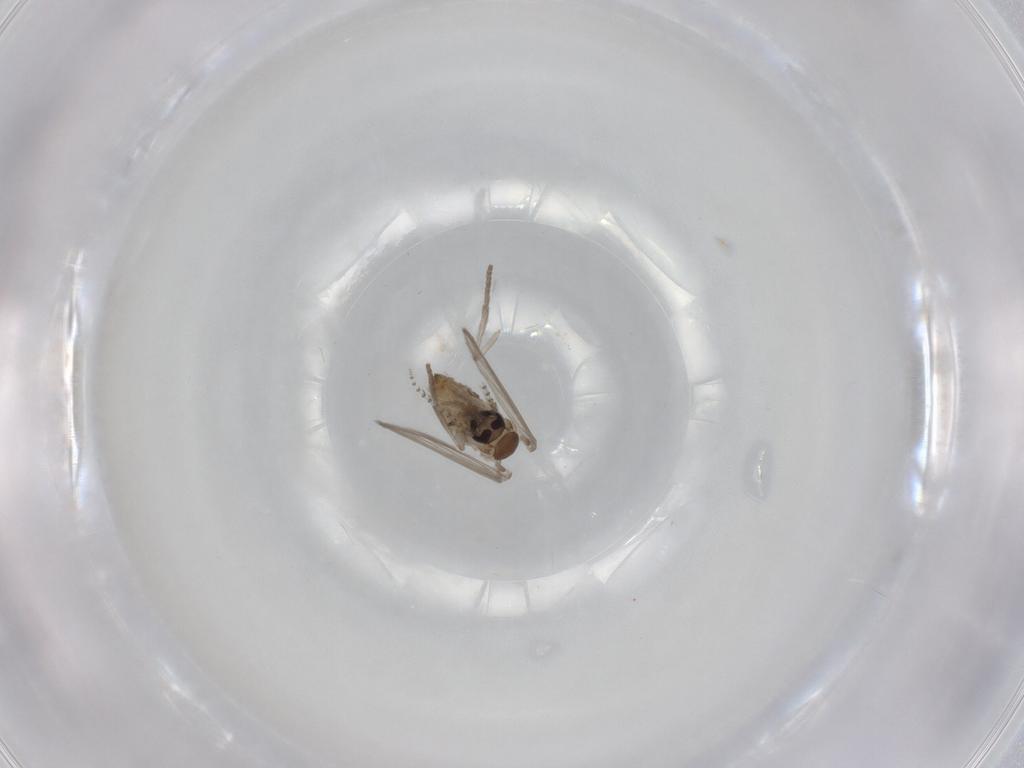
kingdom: Animalia
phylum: Arthropoda
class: Insecta
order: Diptera
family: Psychodidae
